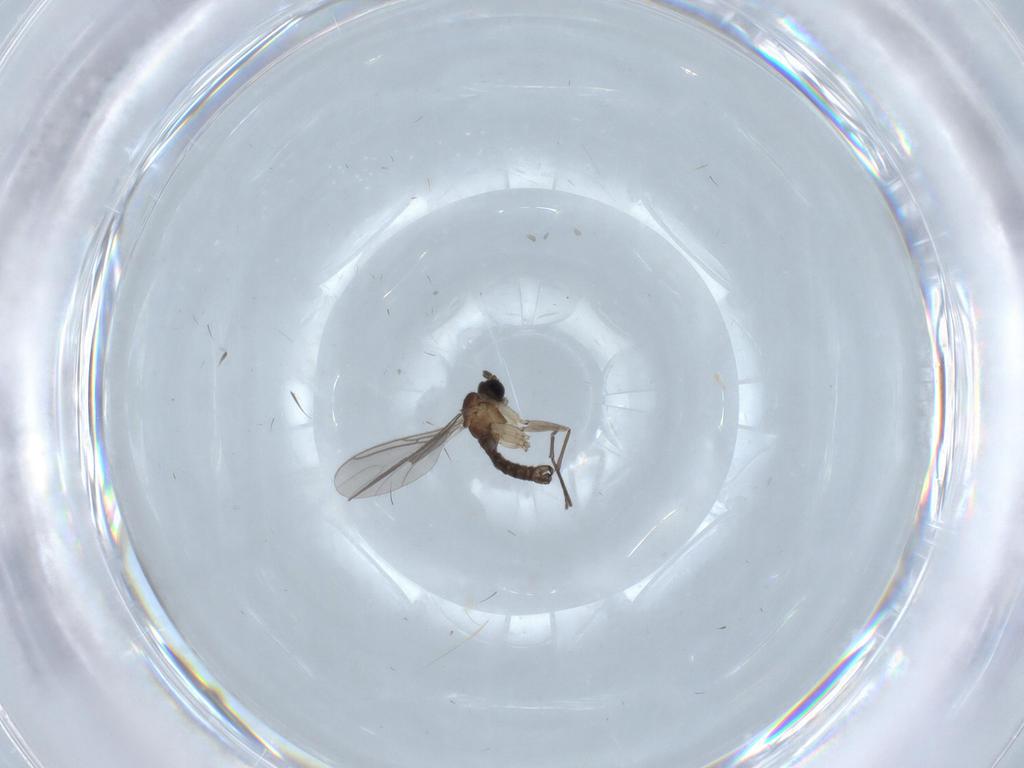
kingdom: Animalia
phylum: Arthropoda
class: Insecta
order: Diptera
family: Sciaridae
